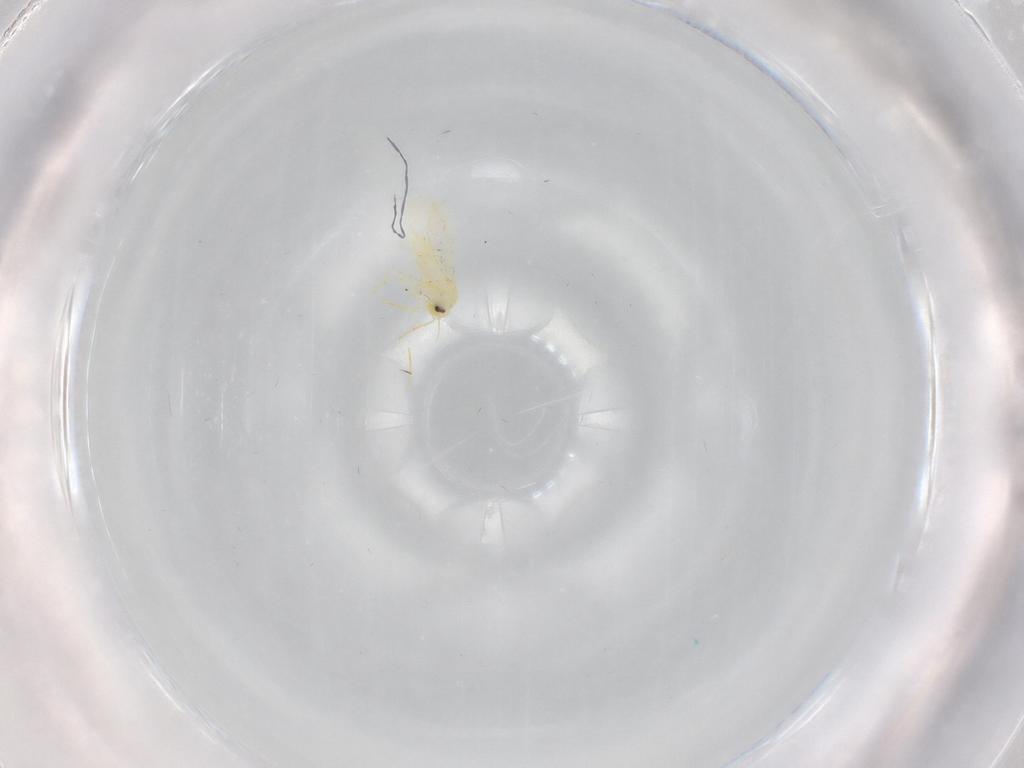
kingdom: Animalia
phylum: Arthropoda
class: Insecta
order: Hemiptera
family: Aleyrodidae
